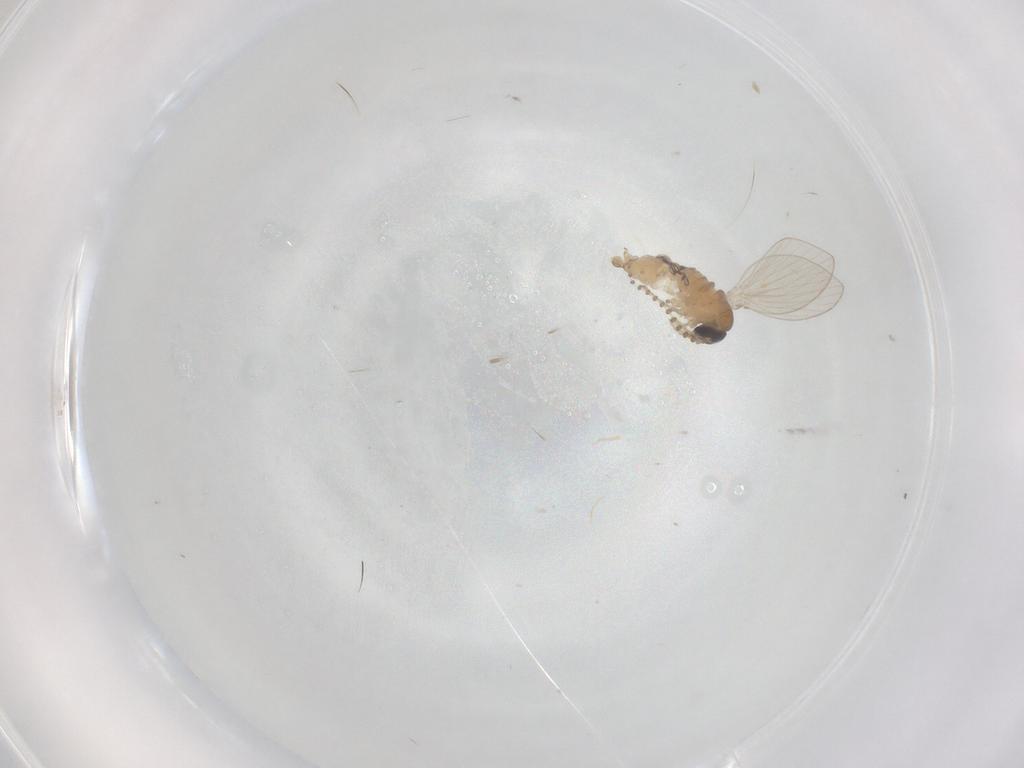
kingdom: Animalia
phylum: Arthropoda
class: Insecta
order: Diptera
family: Psychodidae
